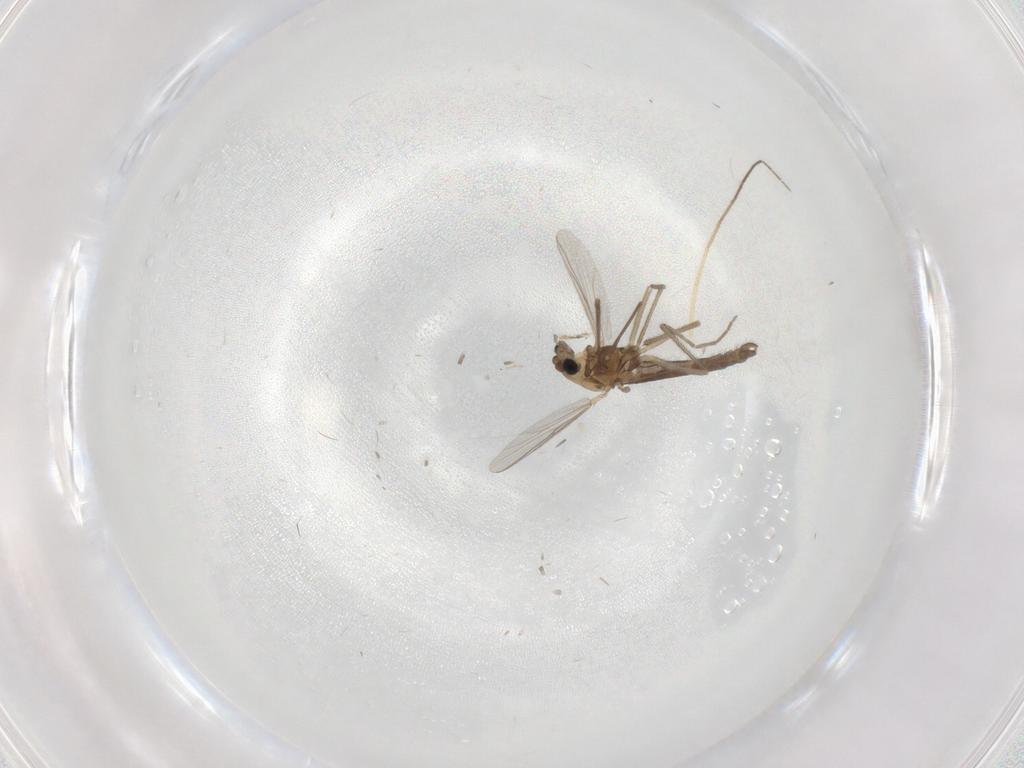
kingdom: Animalia
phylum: Arthropoda
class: Insecta
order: Diptera
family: Chironomidae
